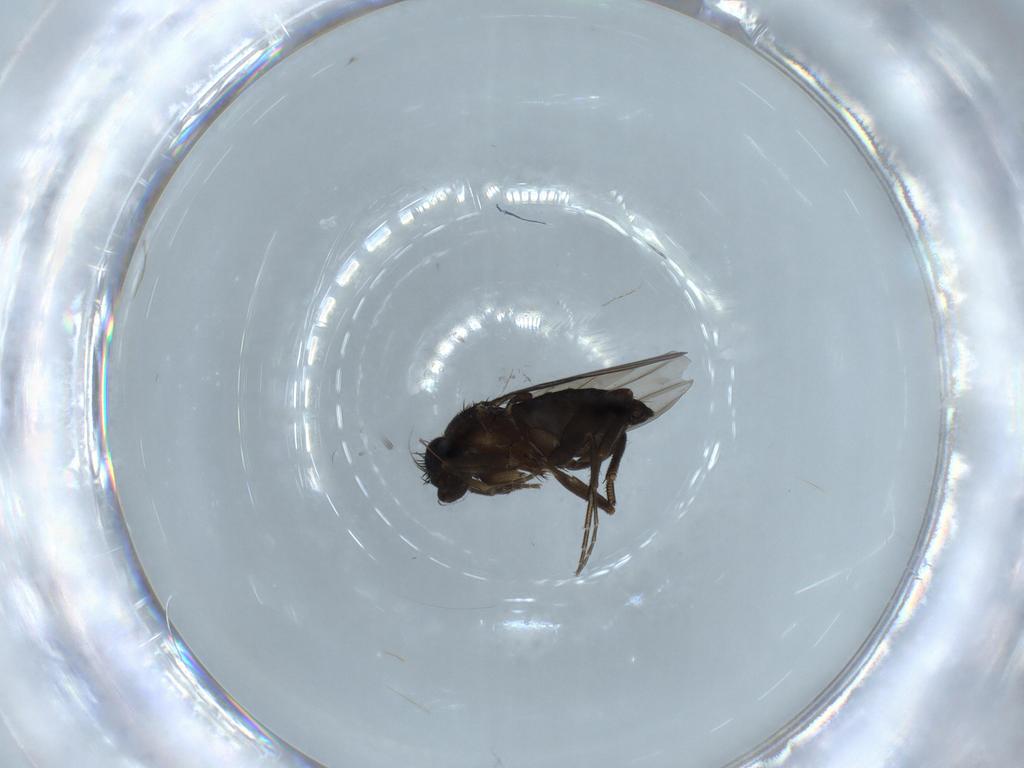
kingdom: Animalia
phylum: Arthropoda
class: Insecta
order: Diptera
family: Phoridae
